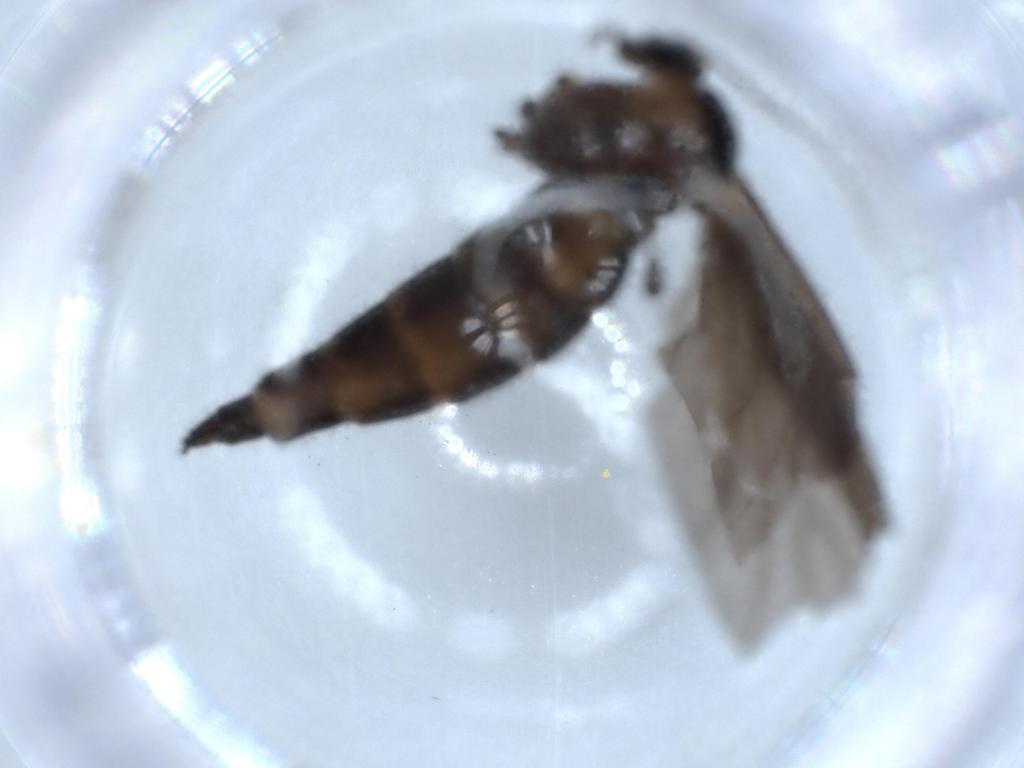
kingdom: Animalia
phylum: Arthropoda
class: Insecta
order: Diptera
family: Sciaridae
